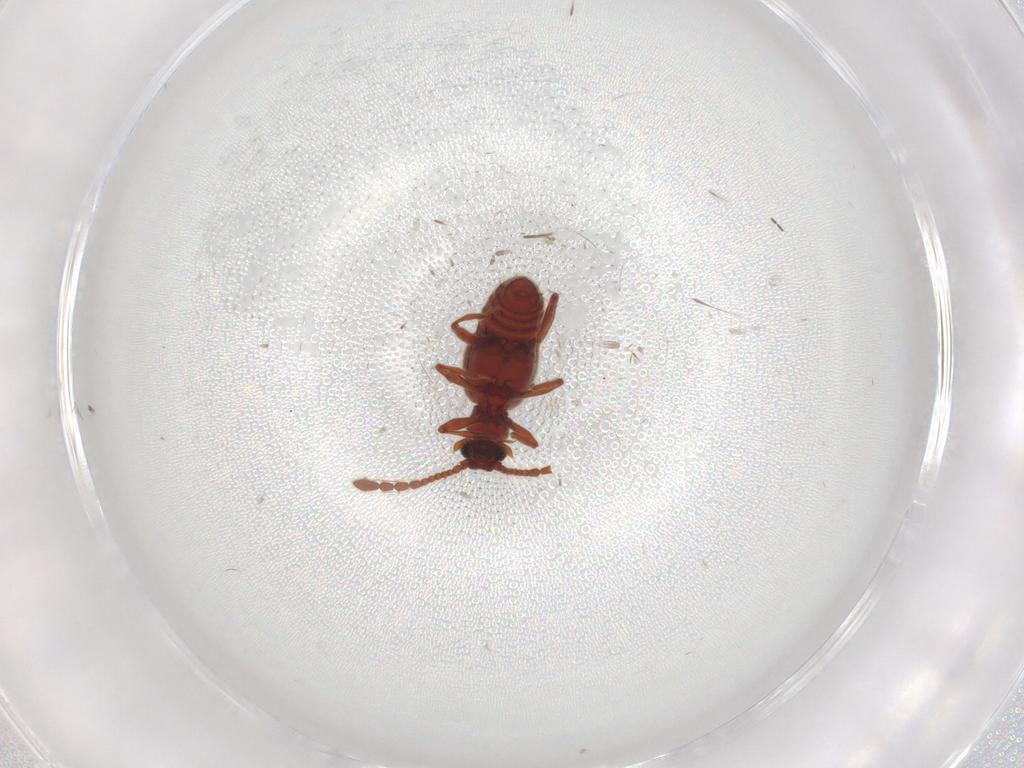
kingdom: Animalia
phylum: Arthropoda
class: Insecta
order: Coleoptera
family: Staphylinidae
